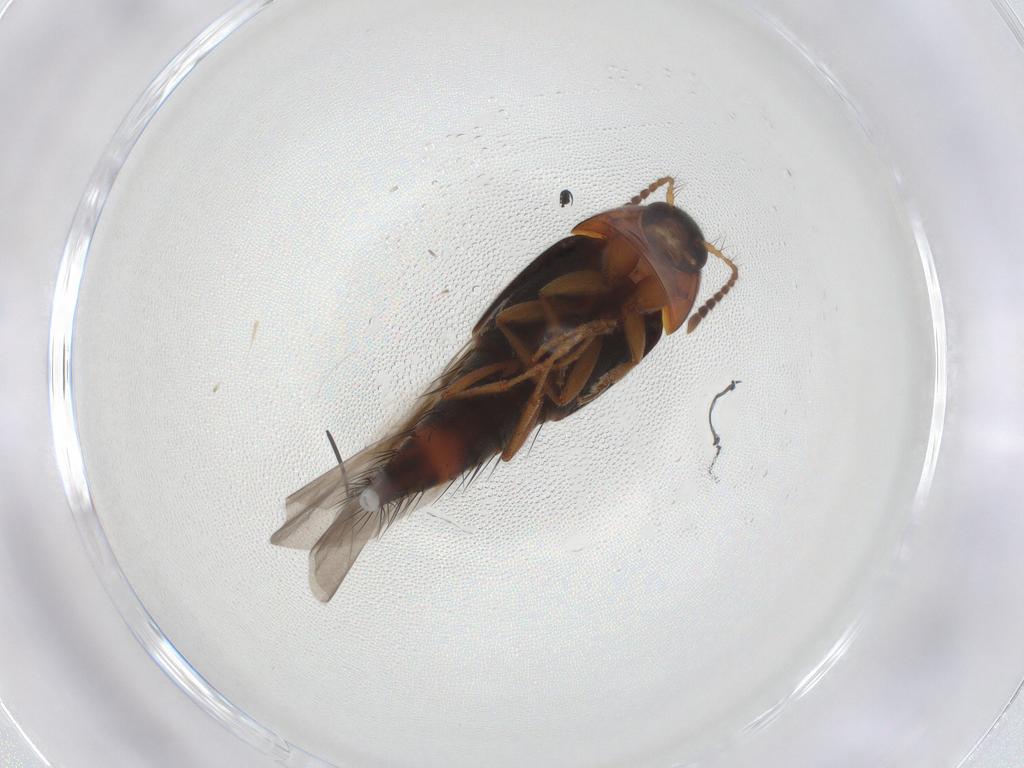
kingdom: Animalia
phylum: Arthropoda
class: Insecta
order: Coleoptera
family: Staphylinidae
